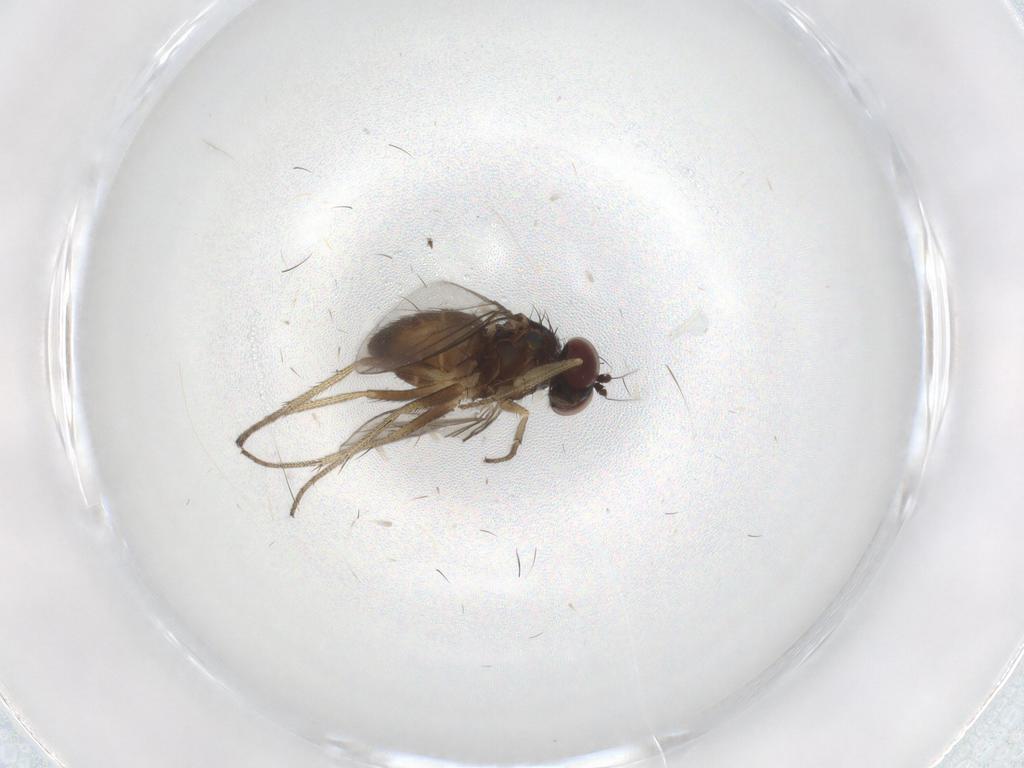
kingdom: Animalia
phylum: Arthropoda
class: Insecta
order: Diptera
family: Dolichopodidae
